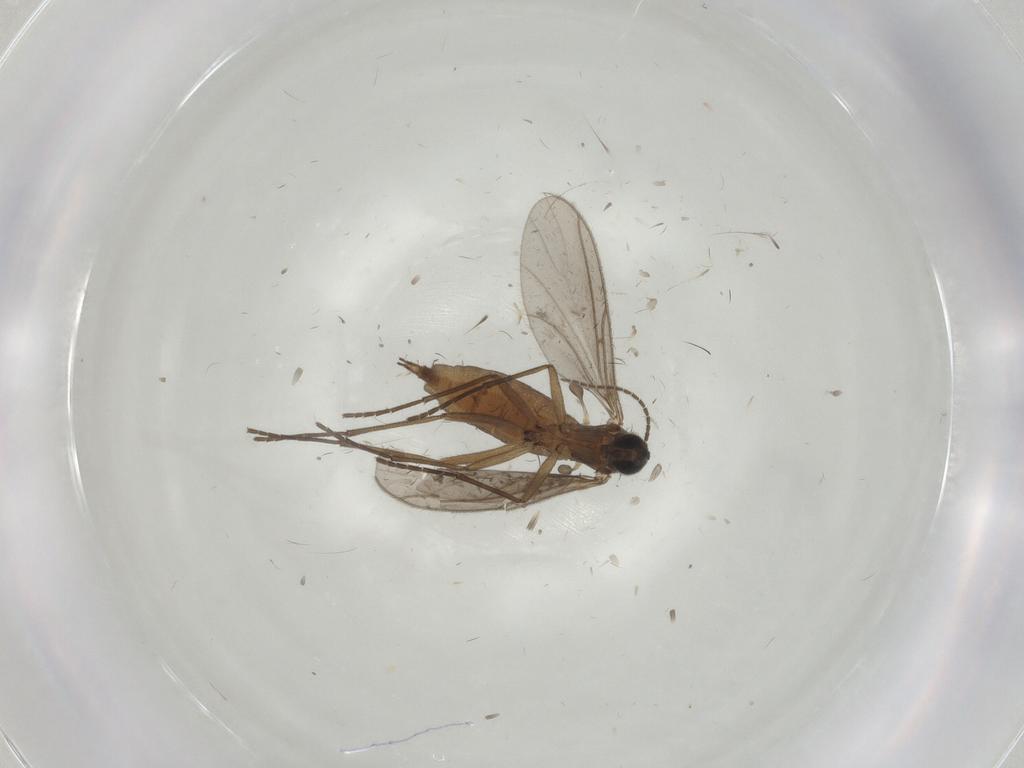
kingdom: Animalia
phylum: Arthropoda
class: Insecta
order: Diptera
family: Sciaridae
